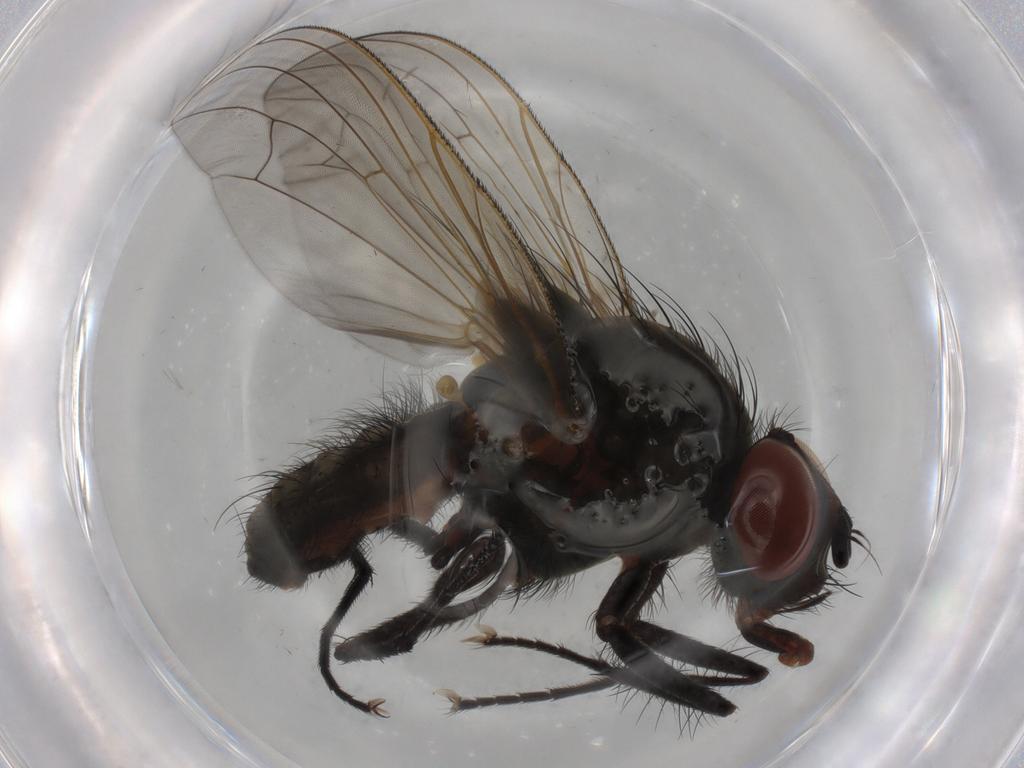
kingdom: Animalia
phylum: Arthropoda
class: Insecta
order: Diptera
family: Anthomyiidae
